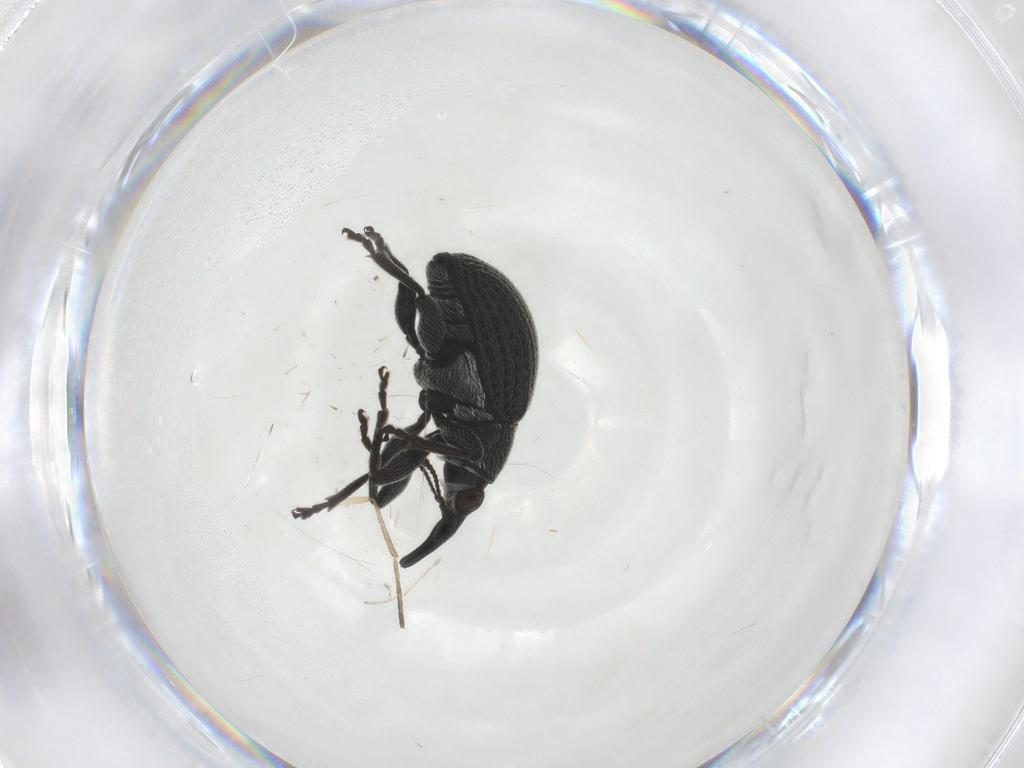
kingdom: Animalia
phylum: Arthropoda
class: Insecta
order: Coleoptera
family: Brentidae
